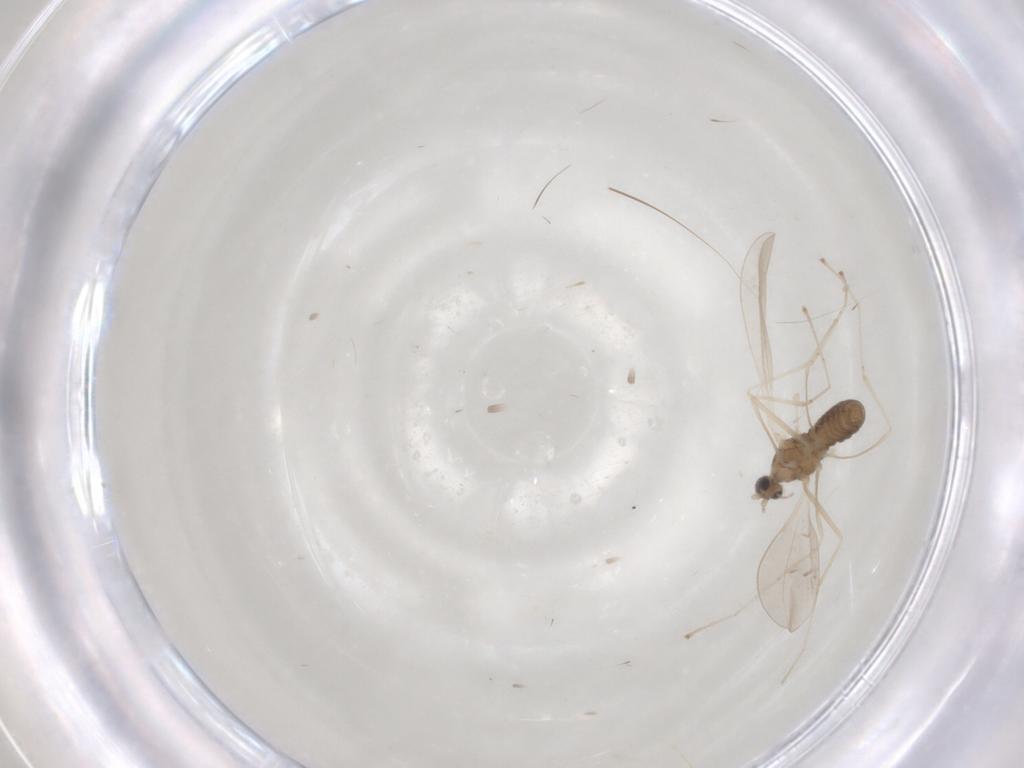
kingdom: Animalia
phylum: Arthropoda
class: Insecta
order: Diptera
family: Cecidomyiidae
